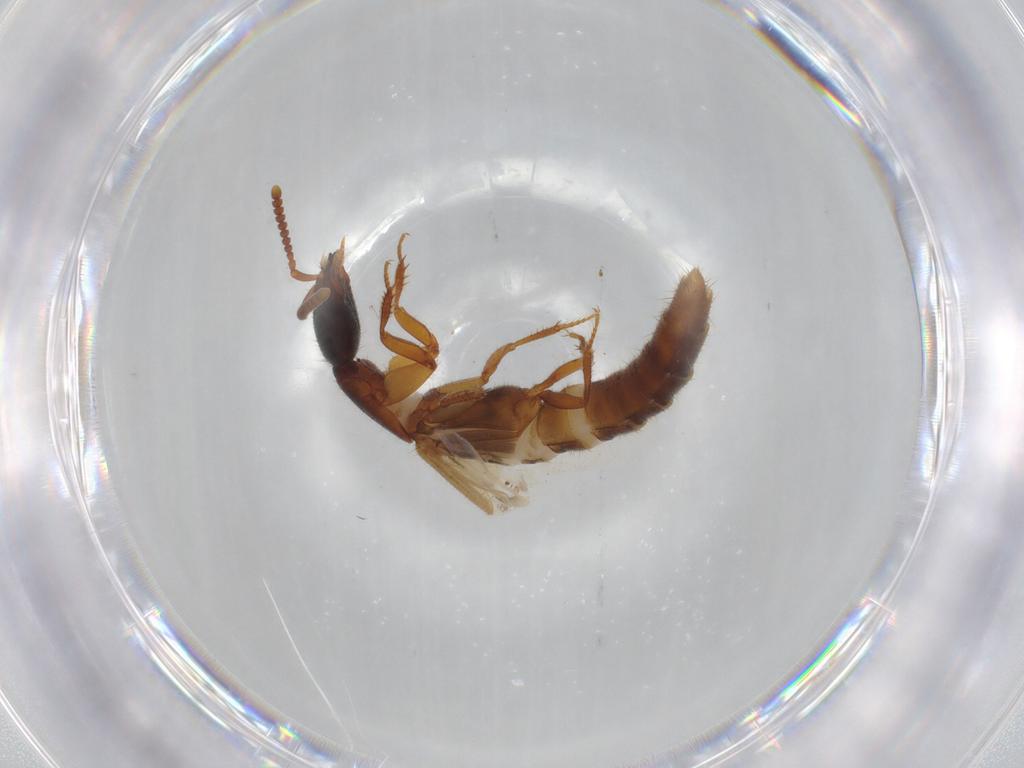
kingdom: Animalia
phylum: Arthropoda
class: Insecta
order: Coleoptera
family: Staphylinidae
